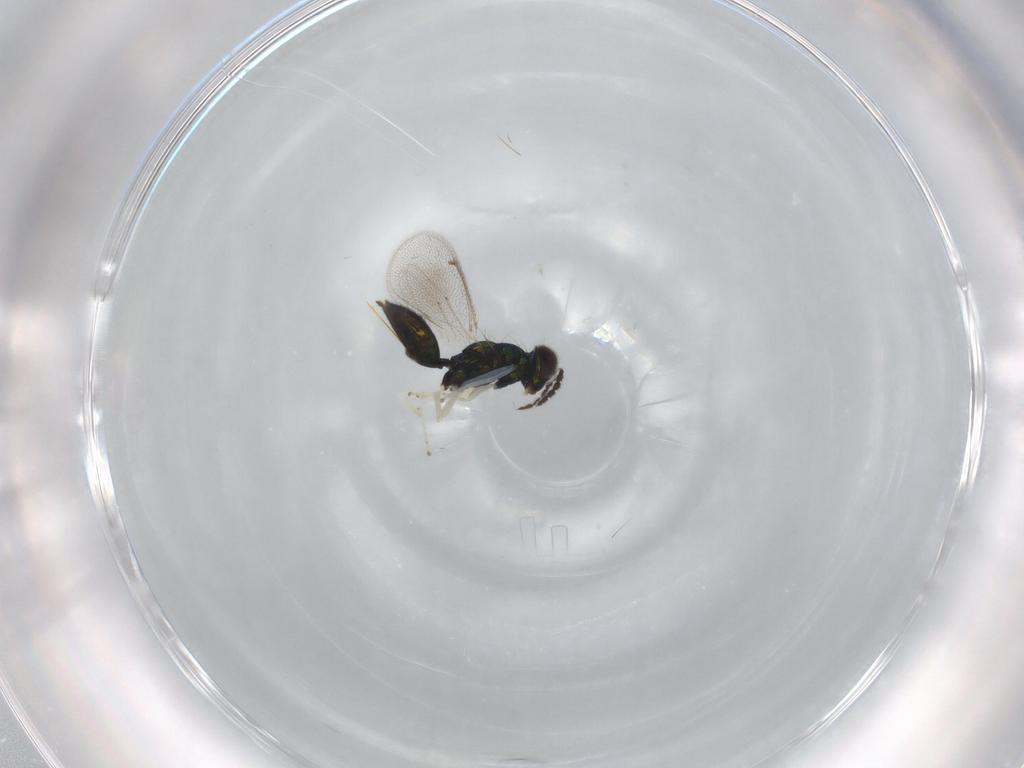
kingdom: Animalia
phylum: Arthropoda
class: Insecta
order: Hymenoptera
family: Eulophidae
